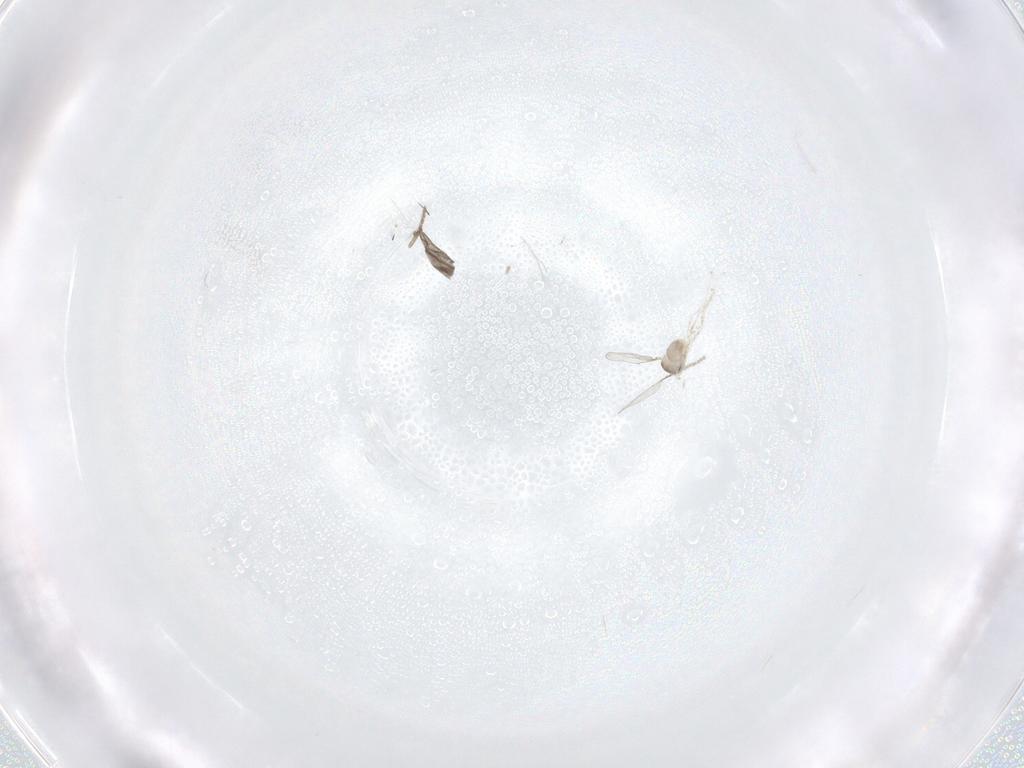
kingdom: Animalia
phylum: Arthropoda
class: Insecta
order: Diptera
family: Cecidomyiidae
